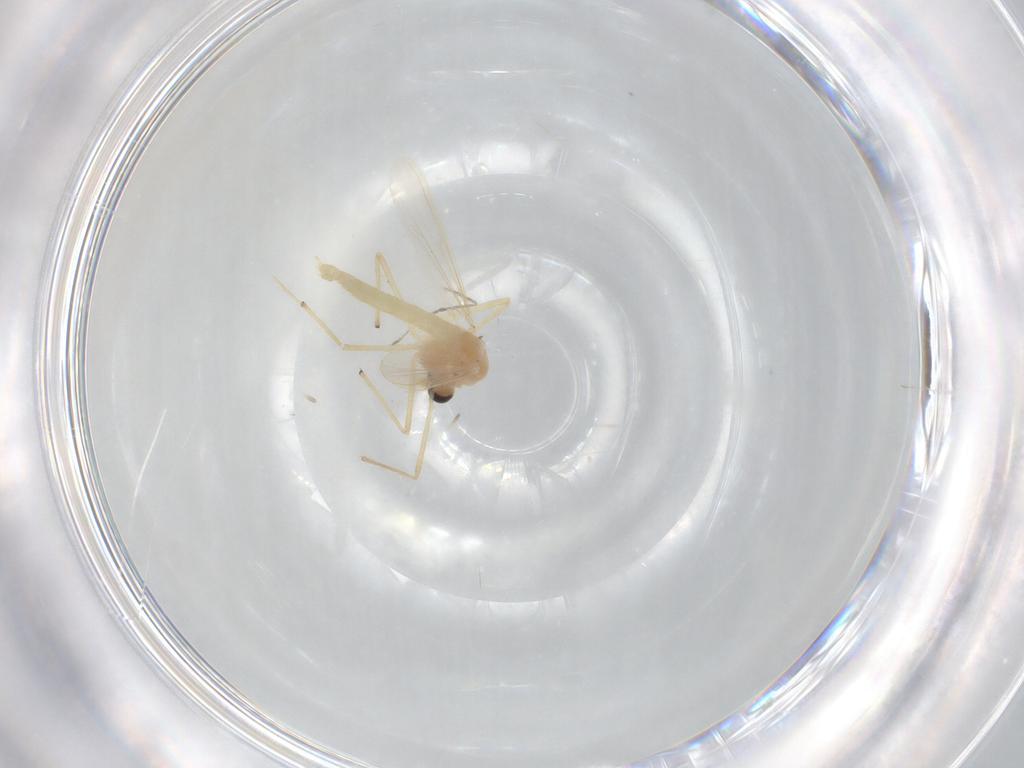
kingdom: Animalia
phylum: Arthropoda
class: Insecta
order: Diptera
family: Chironomidae
